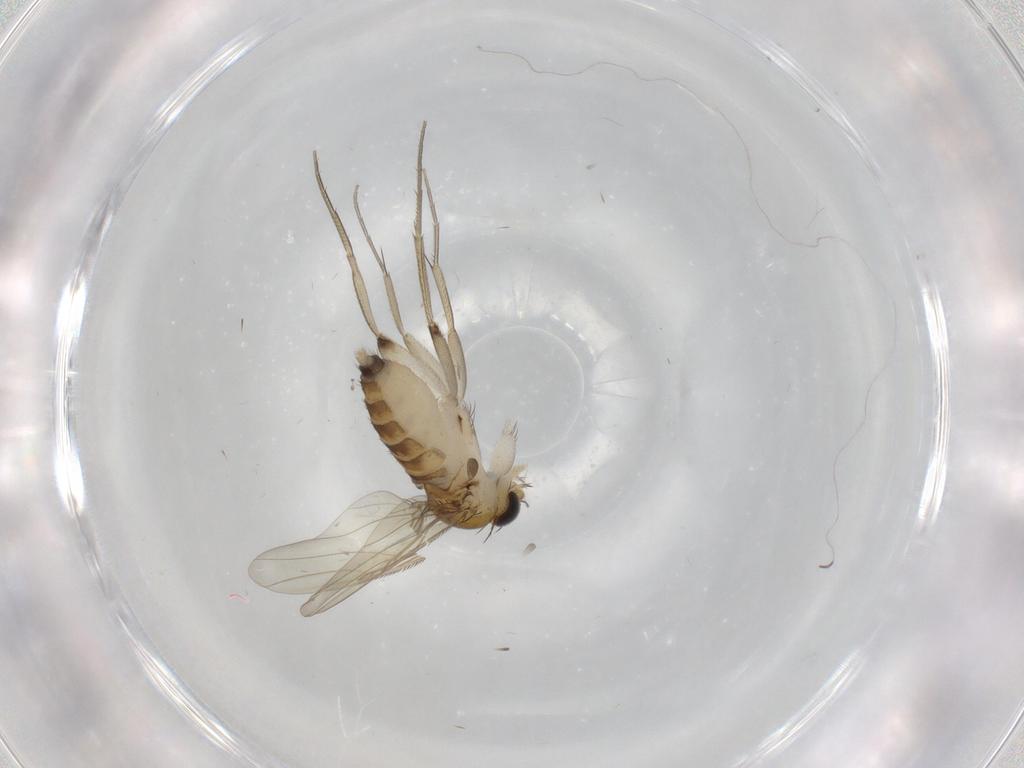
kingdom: Animalia
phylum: Arthropoda
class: Insecta
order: Diptera
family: Phoridae
